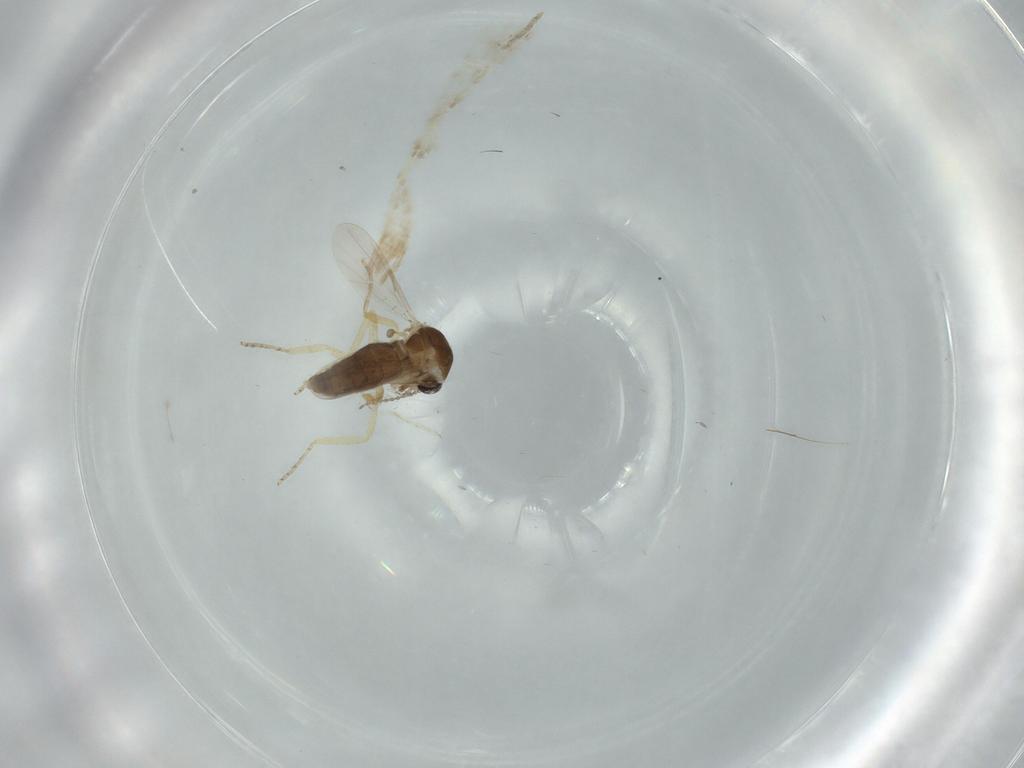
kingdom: Animalia
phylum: Arthropoda
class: Insecta
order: Diptera
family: Ceratopogonidae
